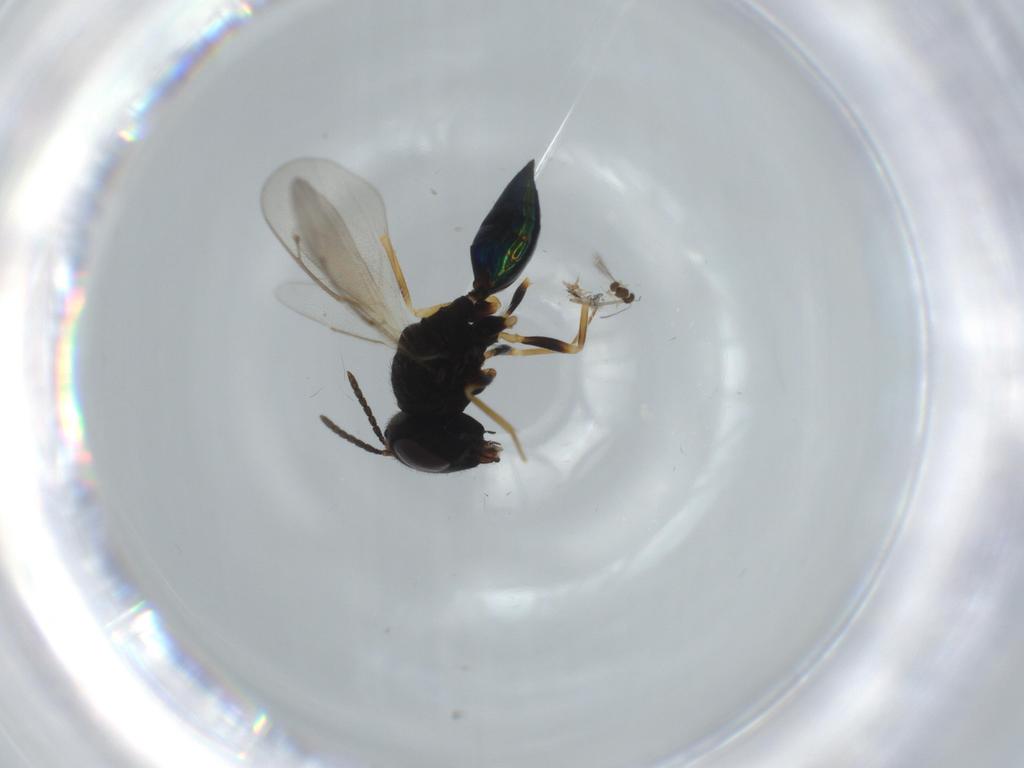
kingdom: Animalia
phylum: Arthropoda
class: Insecta
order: Hymenoptera
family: Pteromalidae
